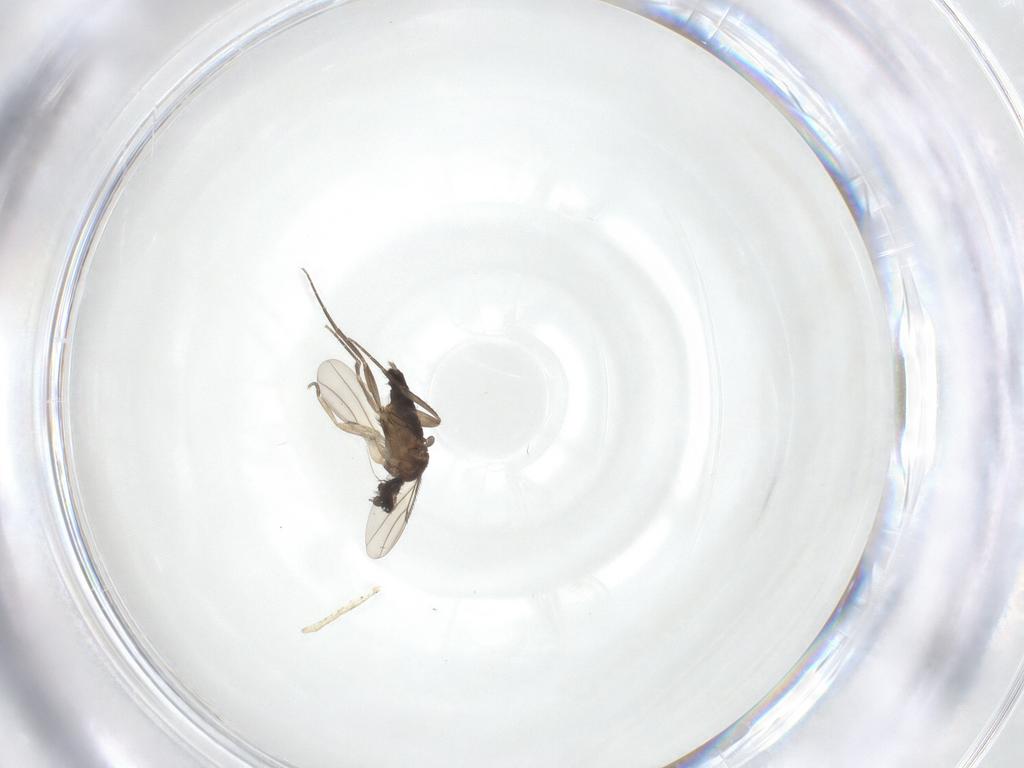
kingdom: Animalia
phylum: Arthropoda
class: Insecta
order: Diptera
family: Phoridae
